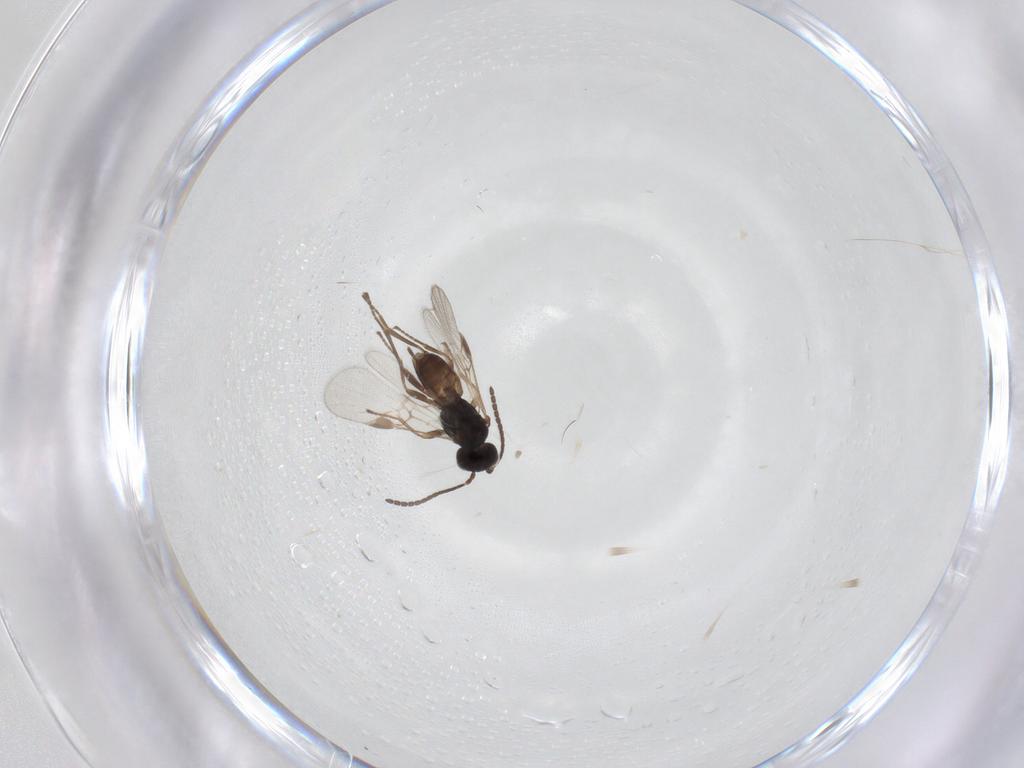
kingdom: Animalia
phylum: Arthropoda
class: Insecta
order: Hymenoptera
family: Braconidae
